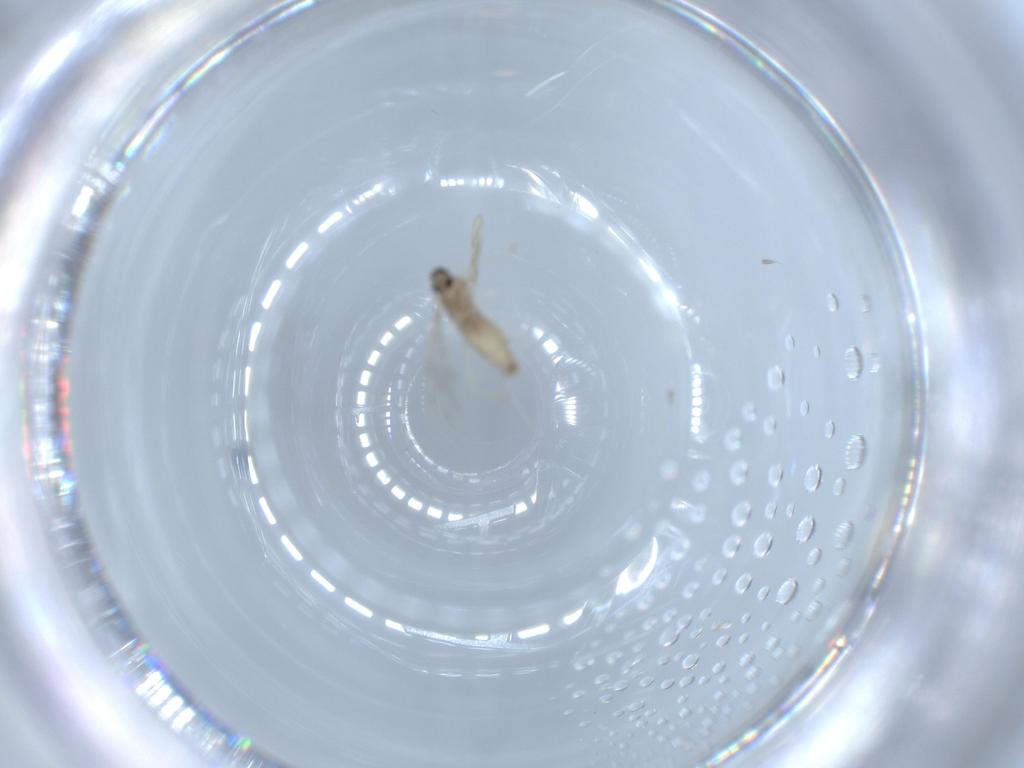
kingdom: Animalia
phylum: Arthropoda
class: Insecta
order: Diptera
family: Cecidomyiidae
